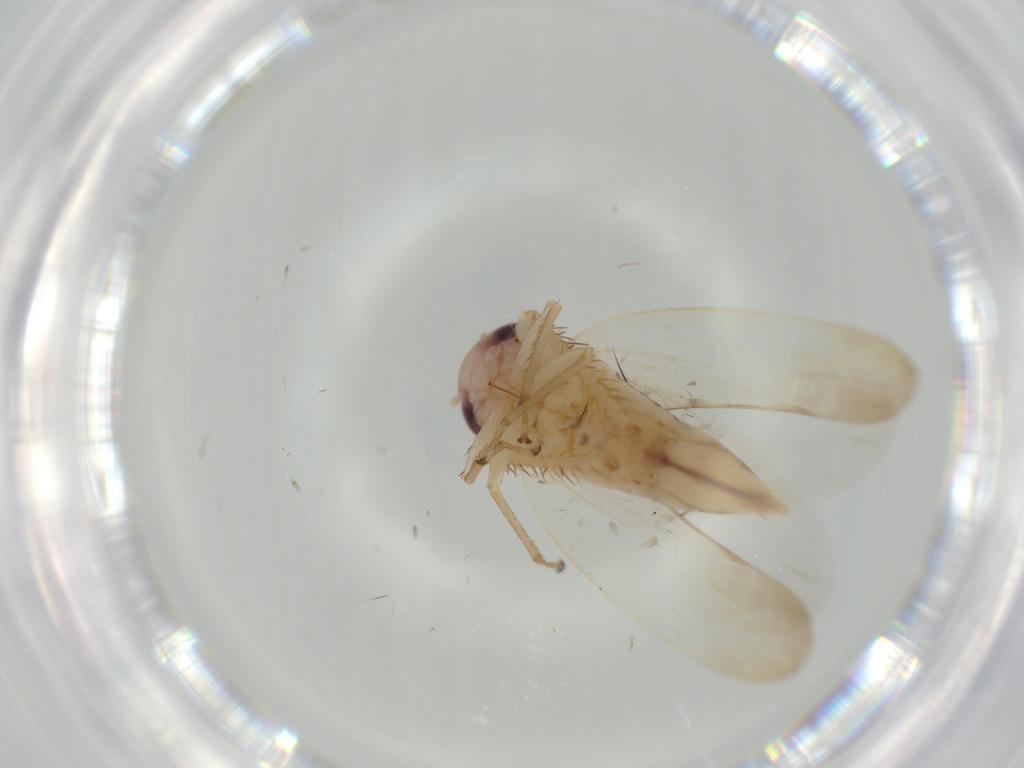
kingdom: Animalia
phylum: Arthropoda
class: Insecta
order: Hemiptera
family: Cicadellidae
